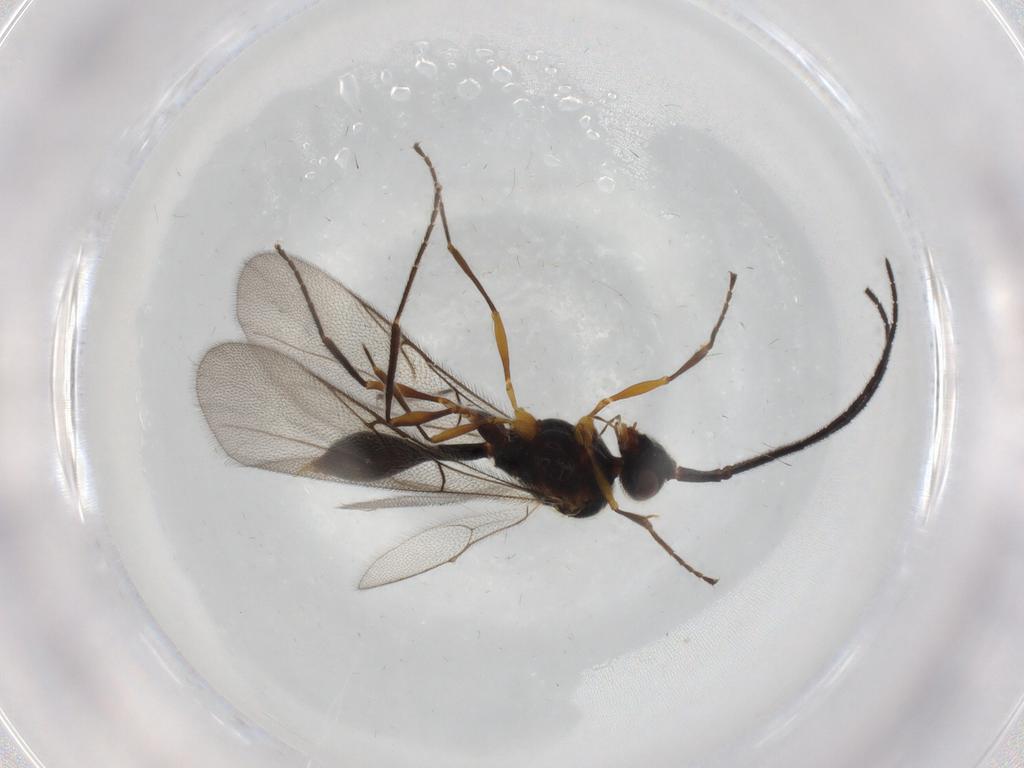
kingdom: Animalia
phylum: Arthropoda
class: Insecta
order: Hymenoptera
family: Diapriidae
